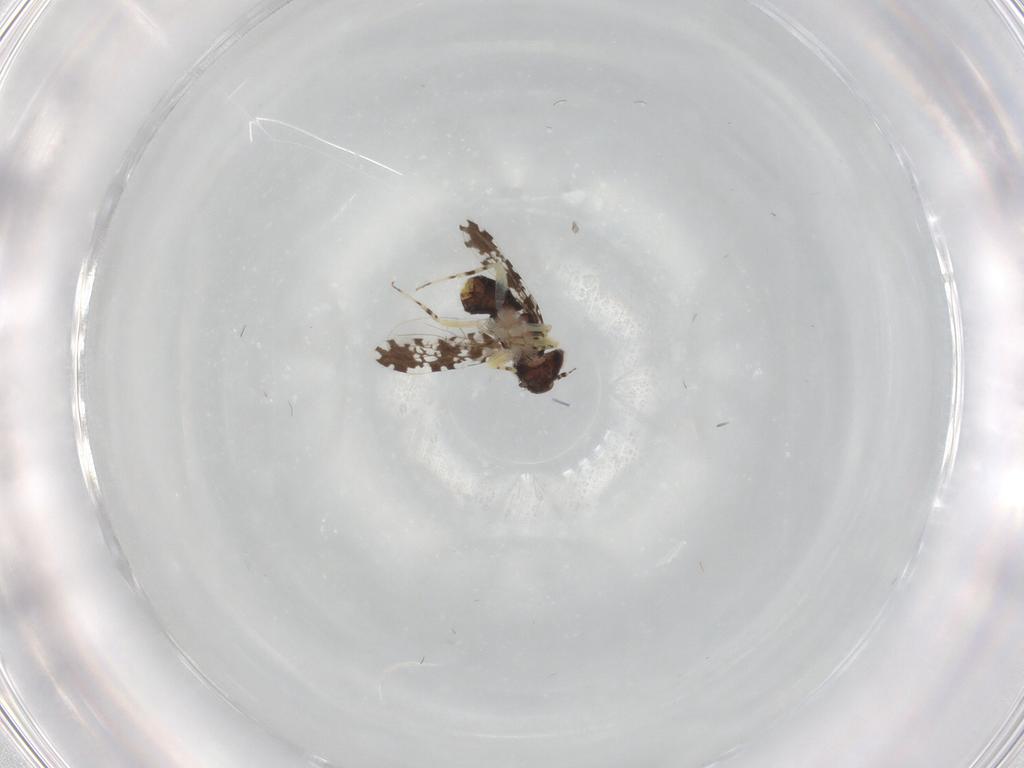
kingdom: Animalia
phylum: Arthropoda
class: Insecta
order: Psocodea
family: Psoquillidae
